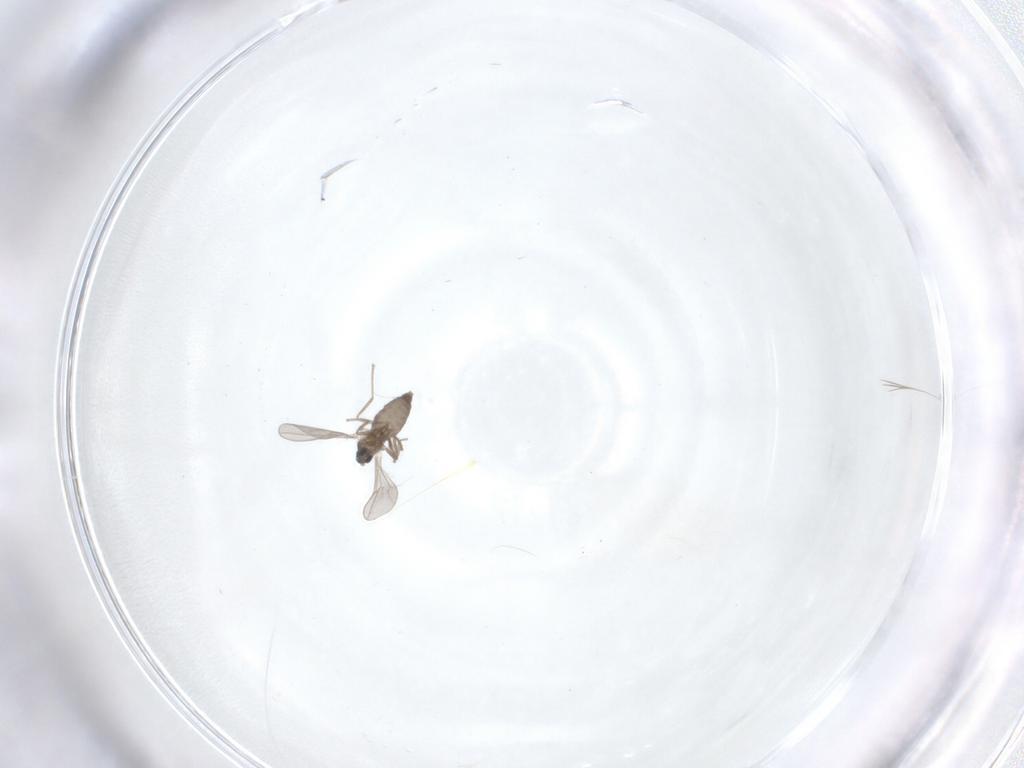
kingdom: Animalia
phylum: Arthropoda
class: Insecta
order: Diptera
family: Cecidomyiidae
